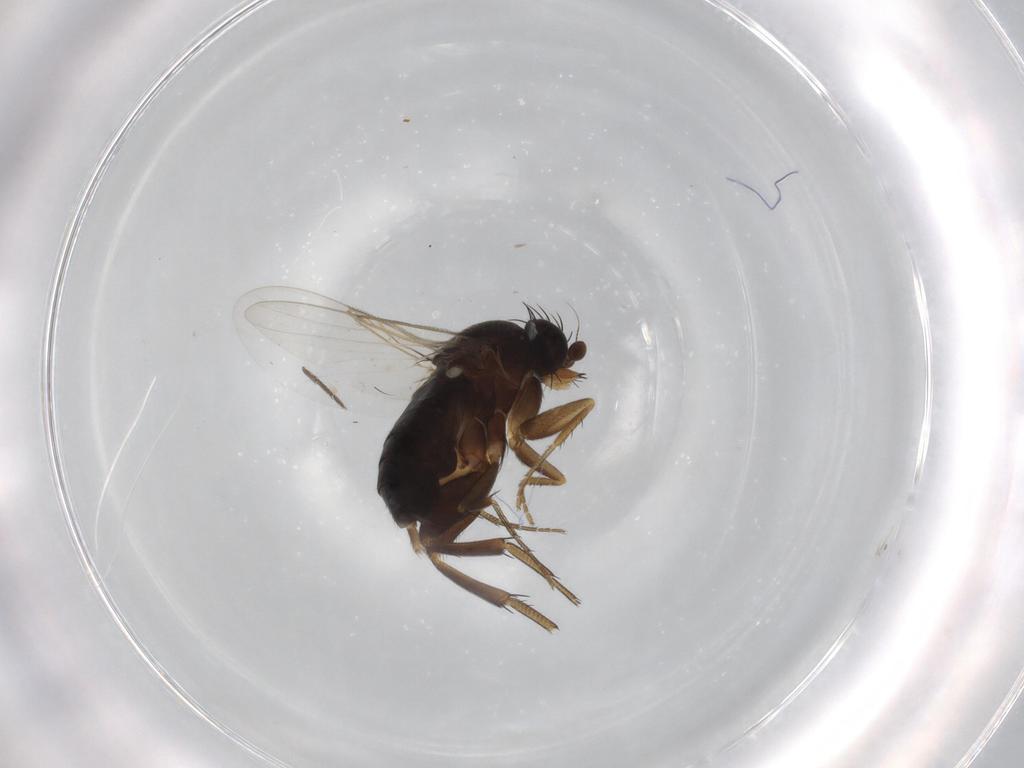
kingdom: Animalia
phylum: Arthropoda
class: Insecta
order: Diptera
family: Phoridae
